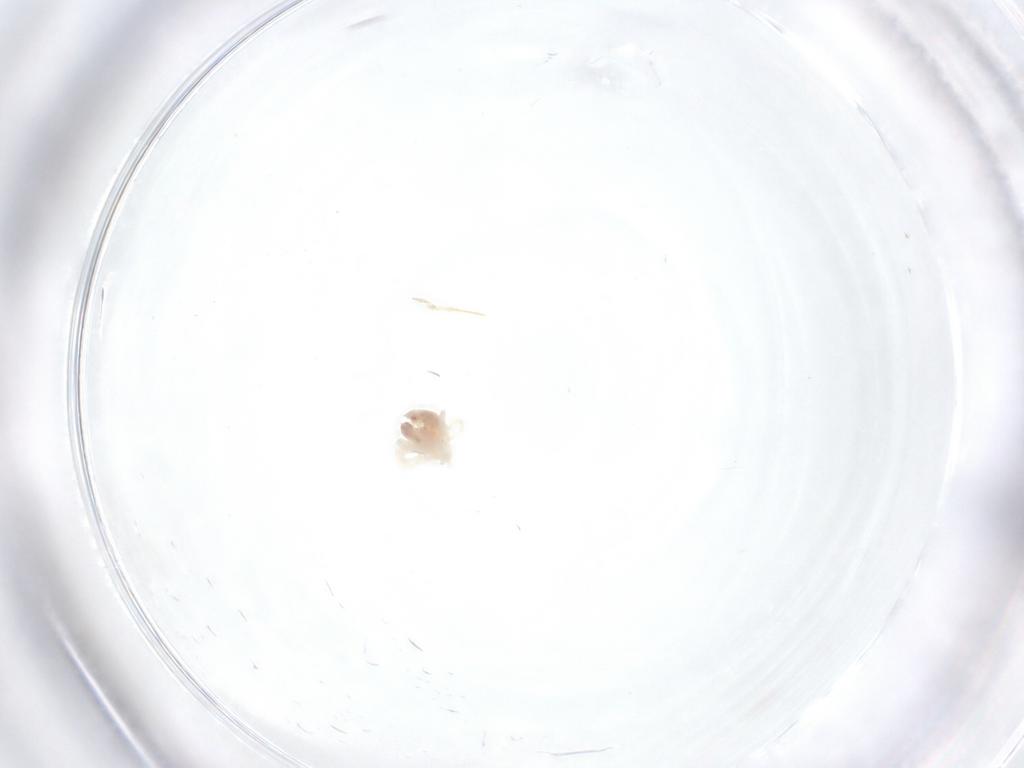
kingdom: Animalia
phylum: Arthropoda
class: Arachnida
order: Trombidiformes
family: Anystidae
